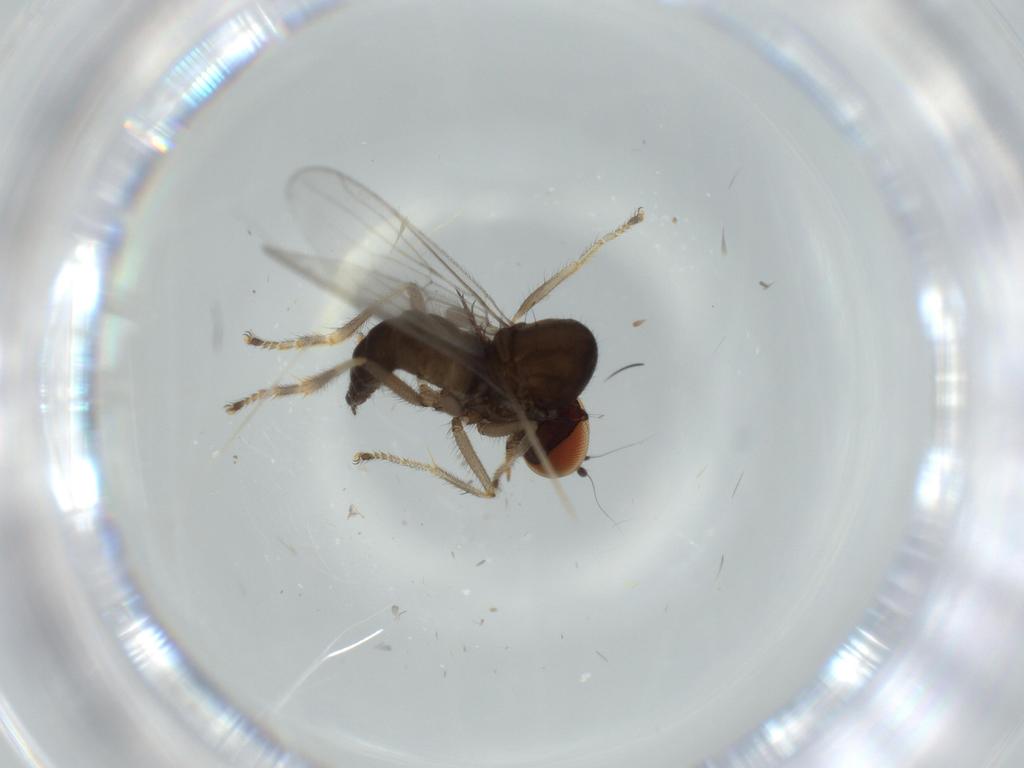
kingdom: Animalia
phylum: Arthropoda
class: Insecta
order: Diptera
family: Hybotidae
